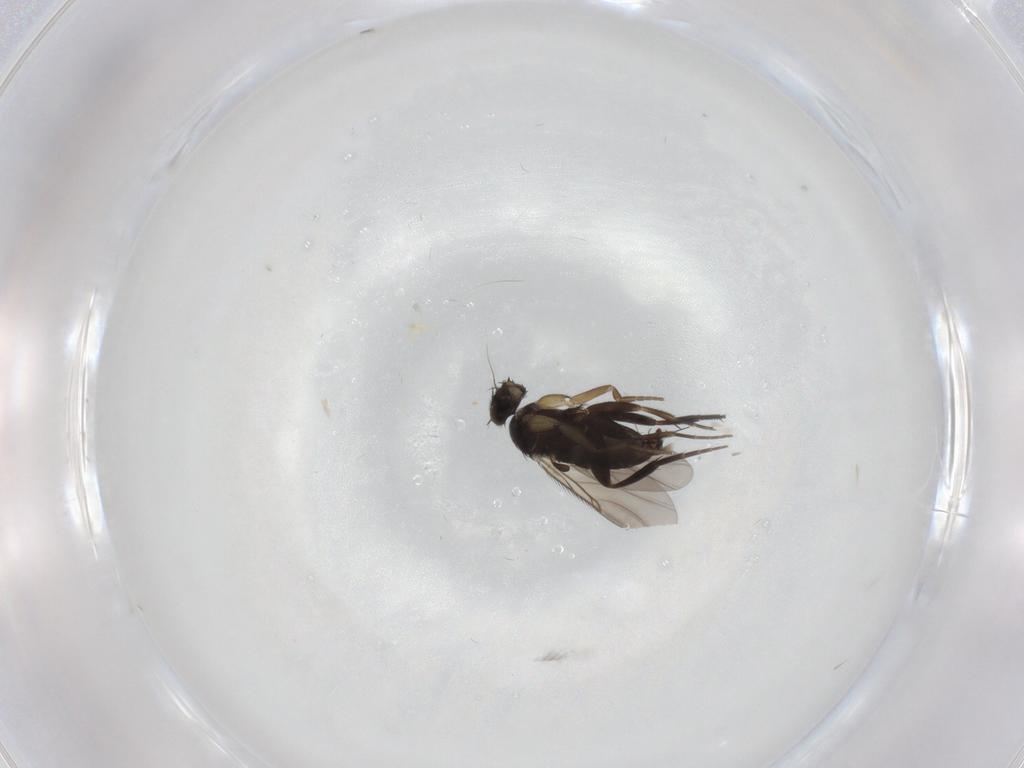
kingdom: Animalia
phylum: Arthropoda
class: Insecta
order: Diptera
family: Phoridae
